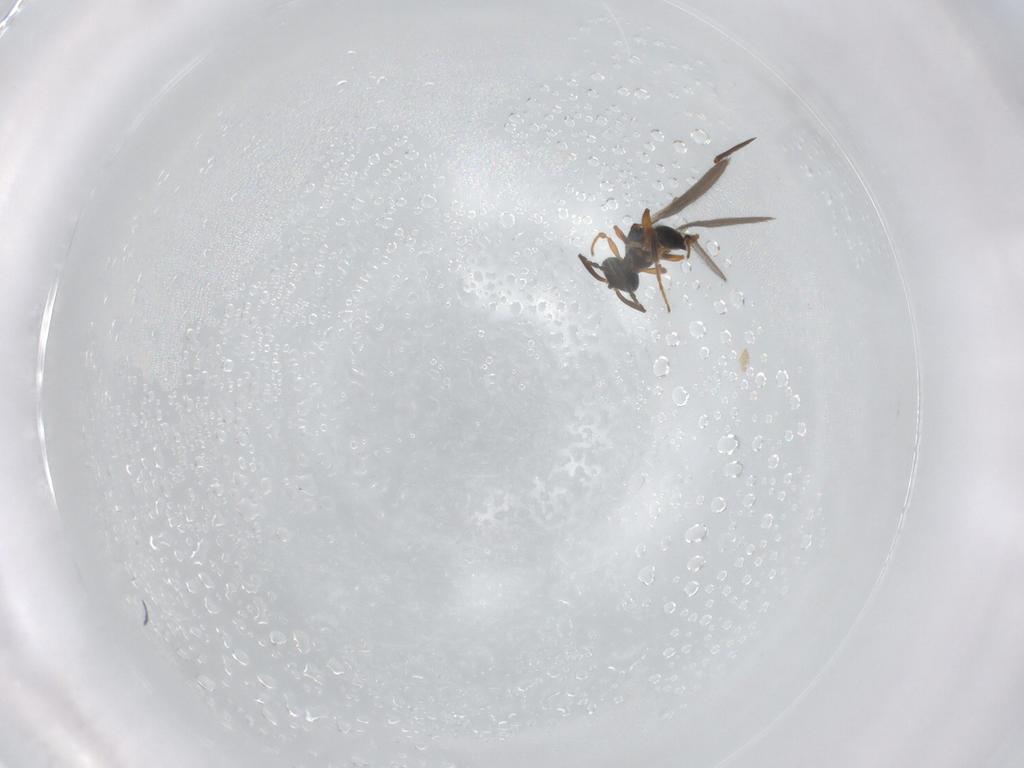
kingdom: Animalia
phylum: Arthropoda
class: Insecta
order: Hymenoptera
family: Platygastridae
